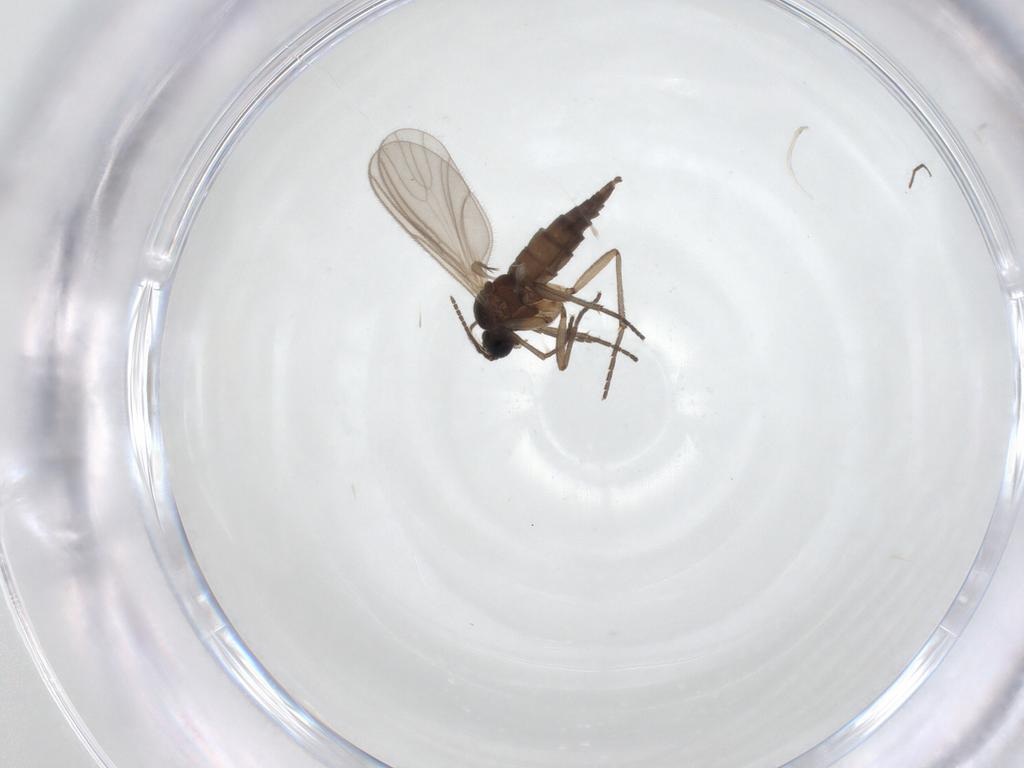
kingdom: Animalia
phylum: Arthropoda
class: Insecta
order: Diptera
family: Sciaridae
